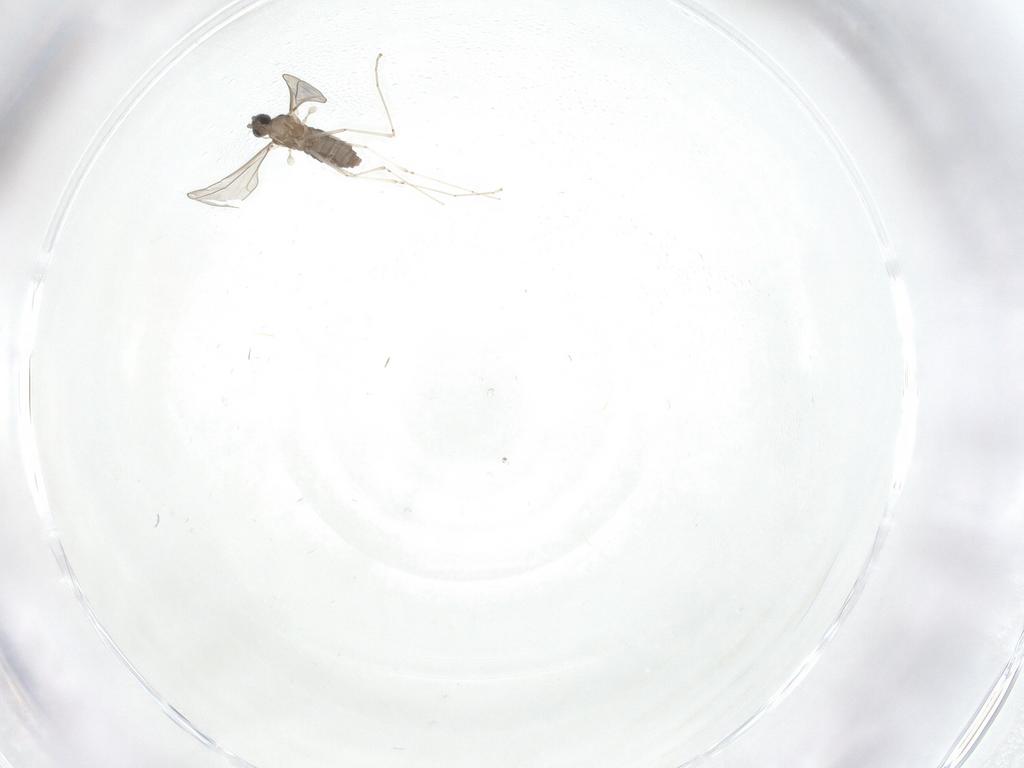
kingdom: Animalia
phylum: Arthropoda
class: Insecta
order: Diptera
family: Cecidomyiidae
